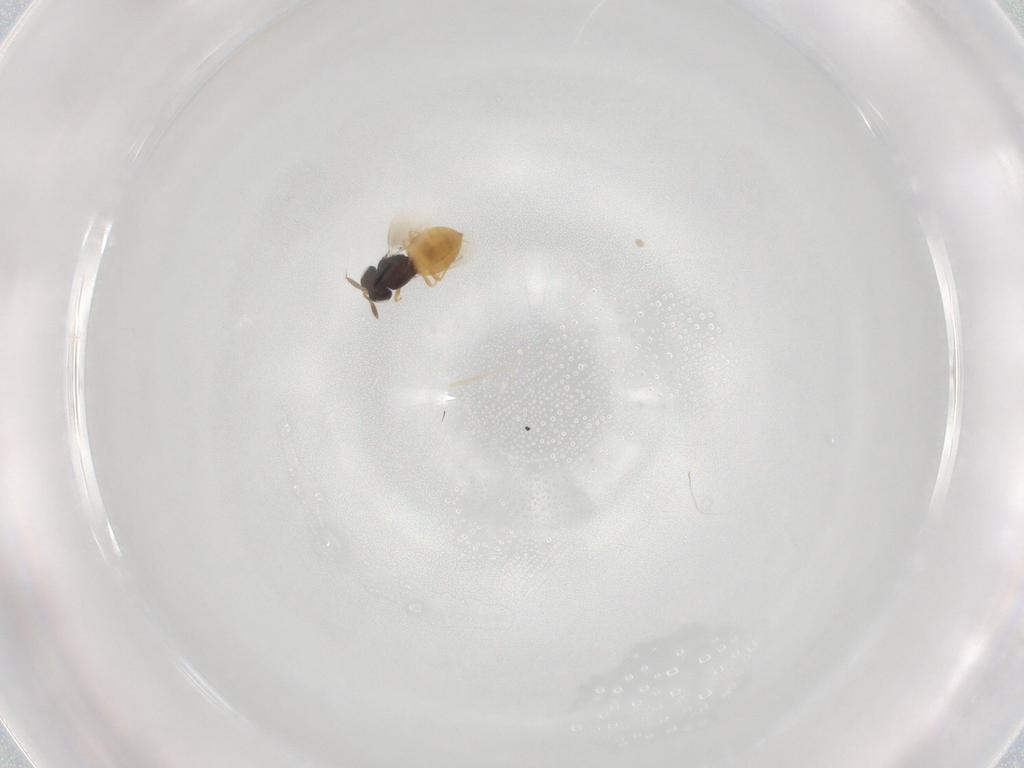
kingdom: Animalia
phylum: Arthropoda
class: Insecta
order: Hymenoptera
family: Scelionidae
